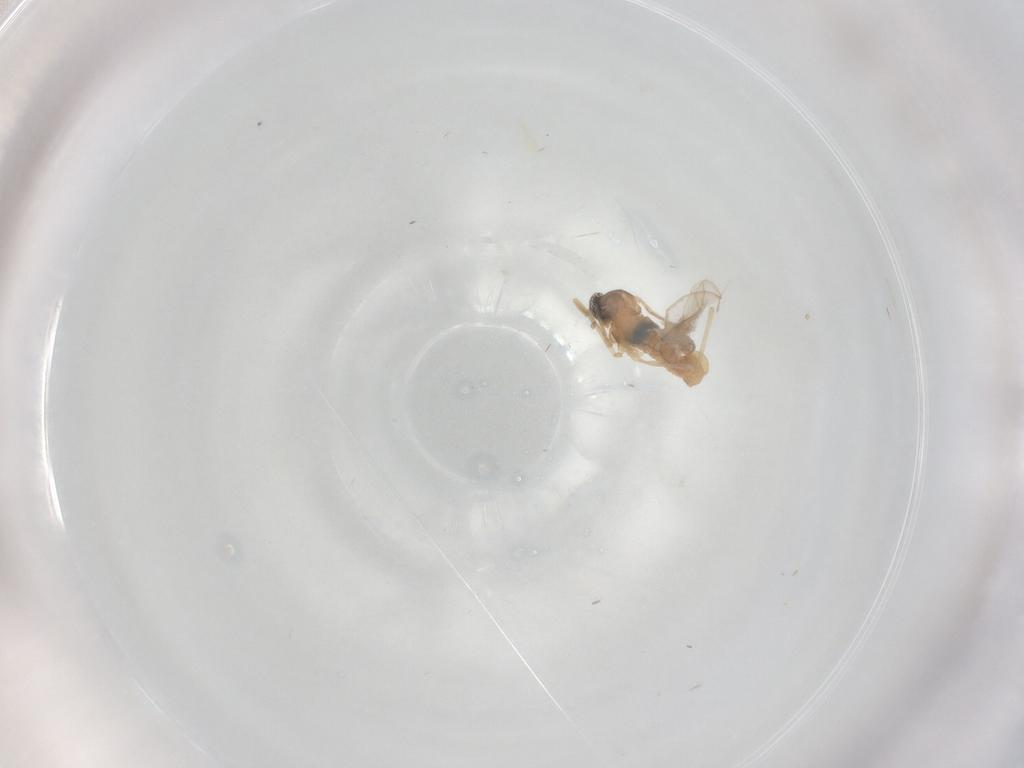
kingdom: Animalia
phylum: Arthropoda
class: Insecta
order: Diptera
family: Cecidomyiidae
